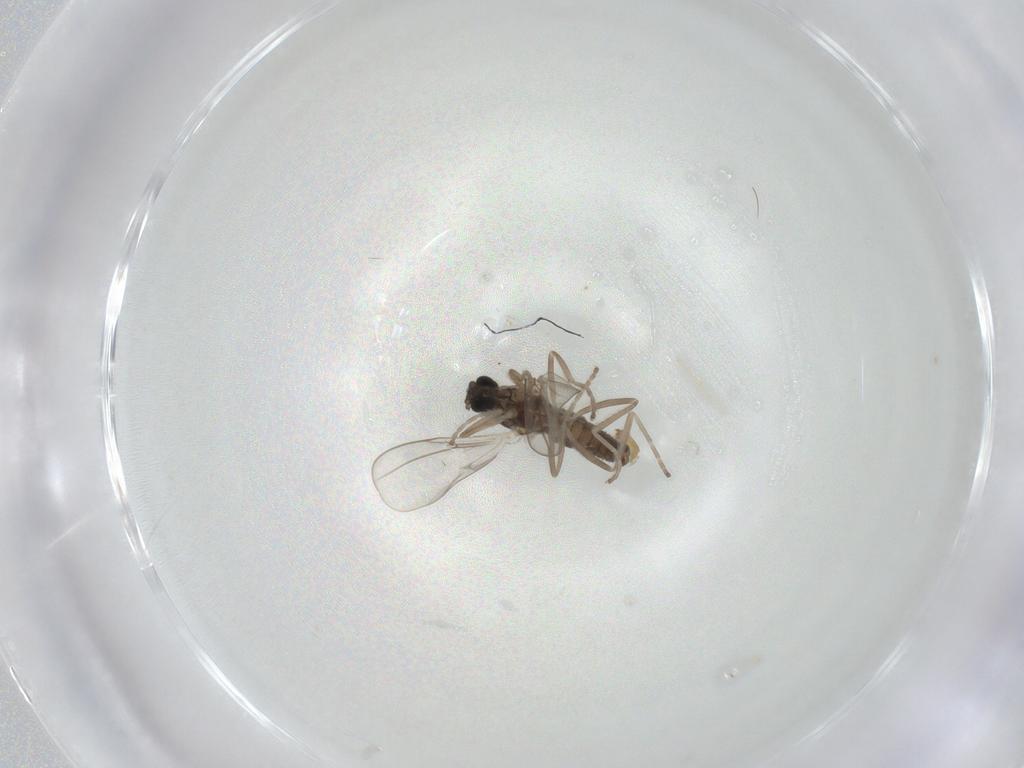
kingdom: Animalia
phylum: Arthropoda
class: Insecta
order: Diptera
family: Cecidomyiidae
